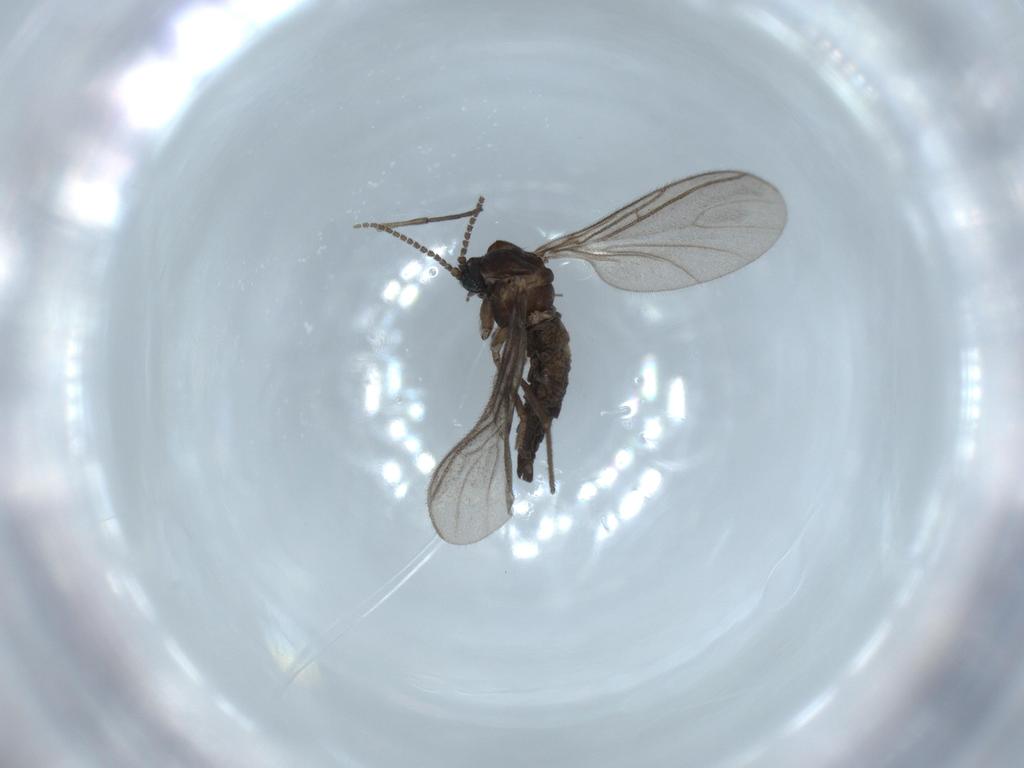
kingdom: Animalia
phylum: Arthropoda
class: Insecta
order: Diptera
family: Sciaridae
